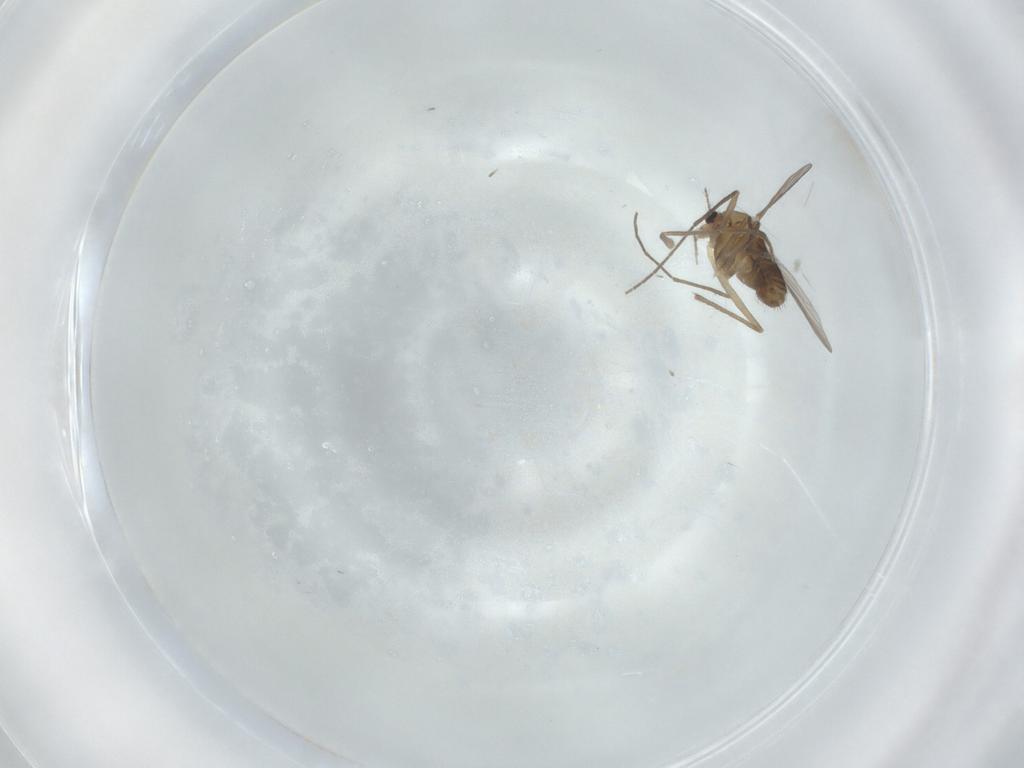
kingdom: Animalia
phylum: Arthropoda
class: Insecta
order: Diptera
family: Chironomidae
